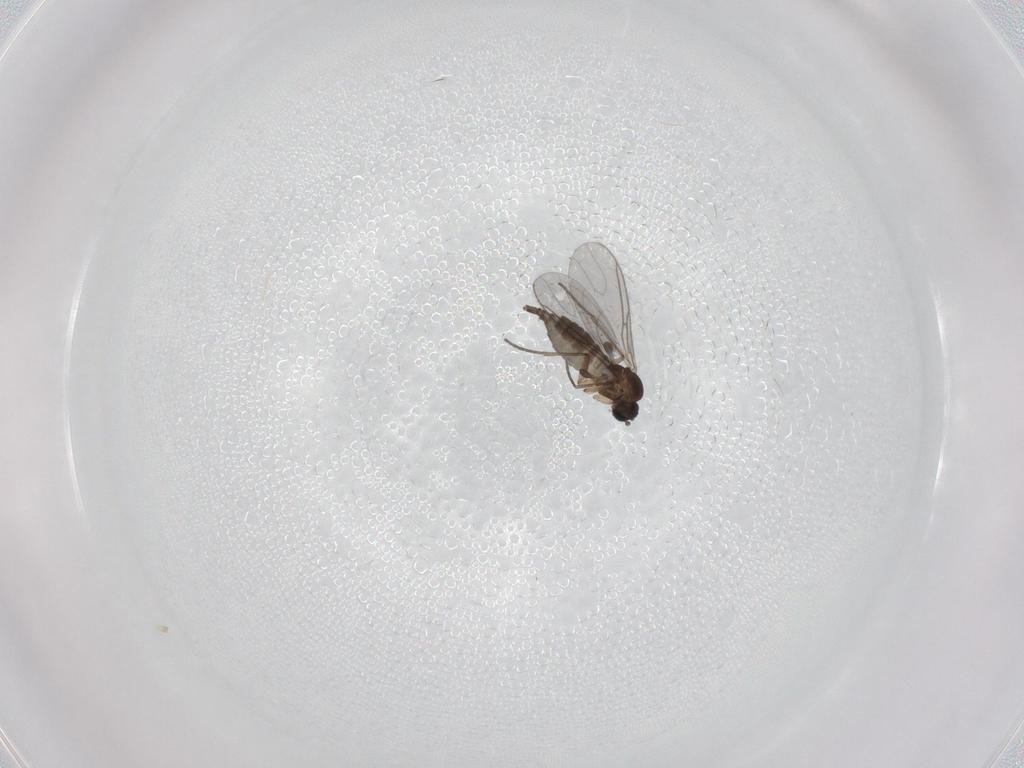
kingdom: Animalia
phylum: Arthropoda
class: Insecta
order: Diptera
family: Sciaridae
